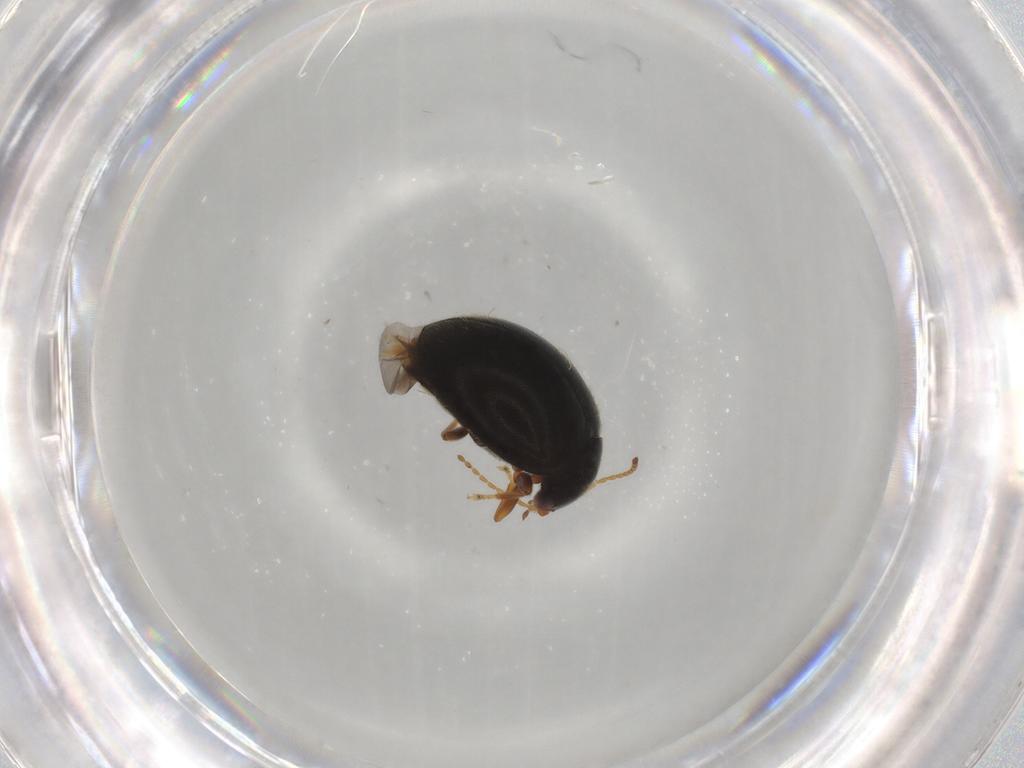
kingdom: Animalia
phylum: Arthropoda
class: Insecta
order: Coleoptera
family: Scirtidae
